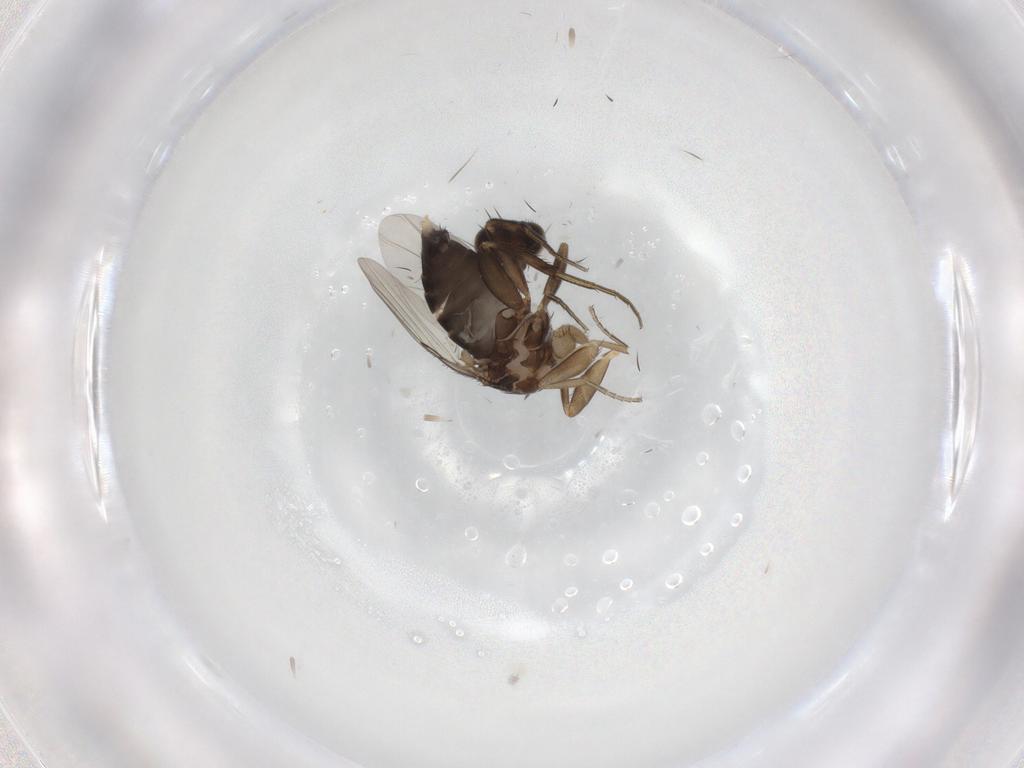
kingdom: Animalia
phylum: Arthropoda
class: Insecta
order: Diptera
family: Phoridae
